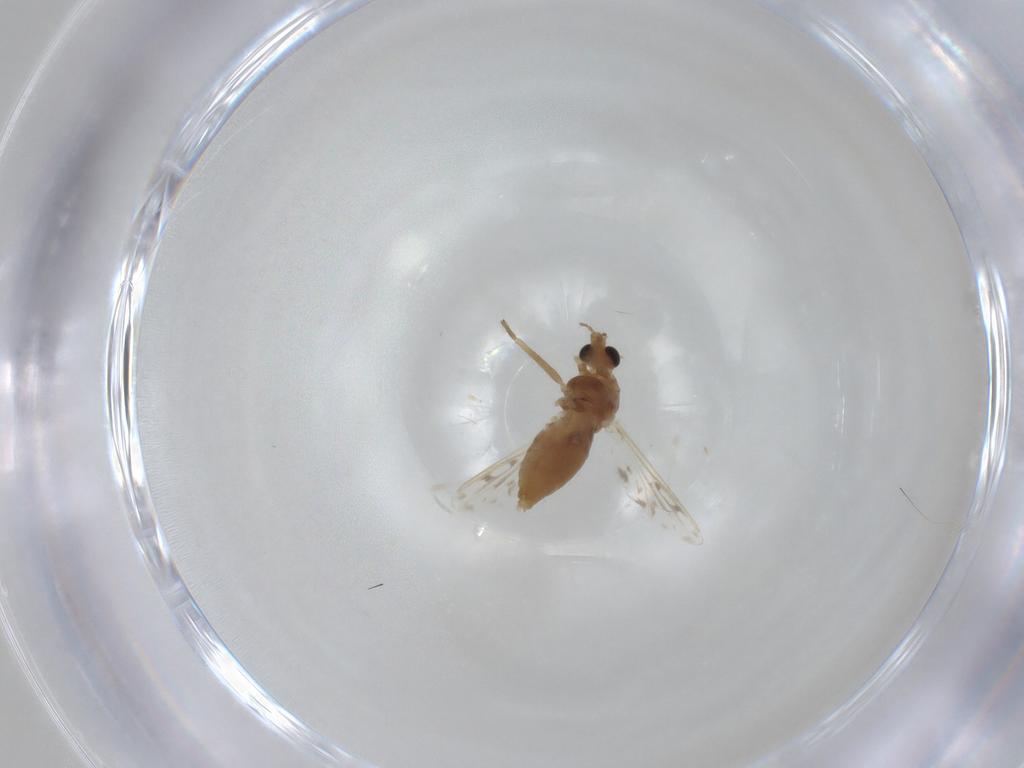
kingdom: Animalia
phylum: Arthropoda
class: Insecta
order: Diptera
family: Chironomidae
